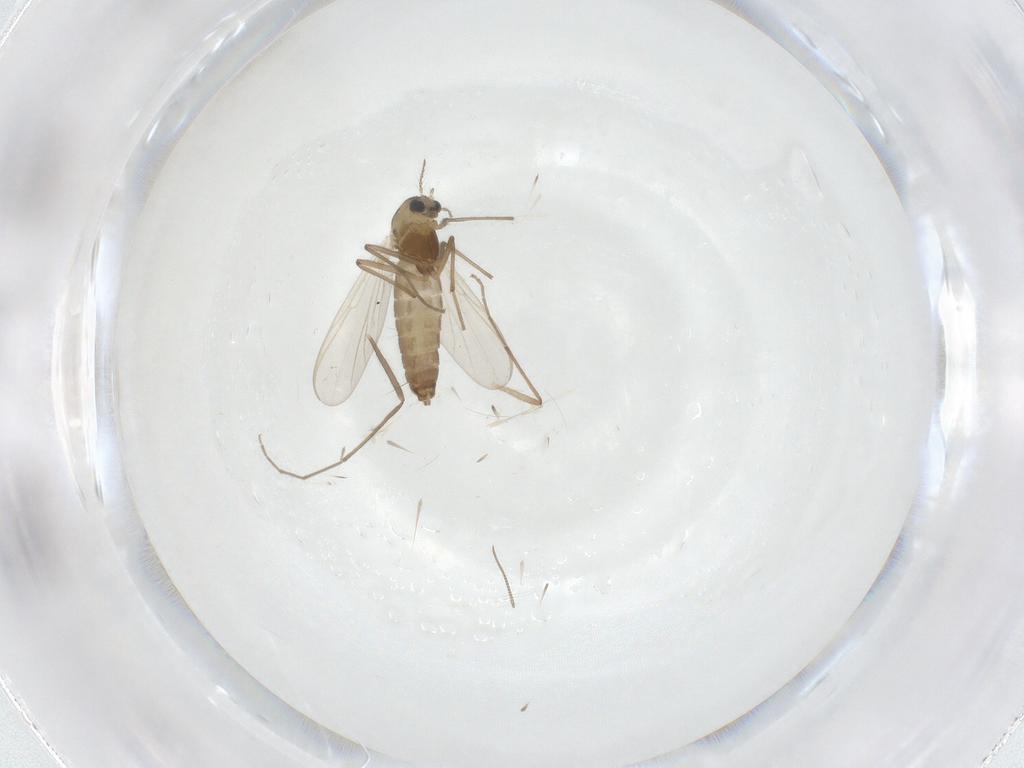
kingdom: Animalia
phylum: Arthropoda
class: Insecta
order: Diptera
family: Chironomidae
